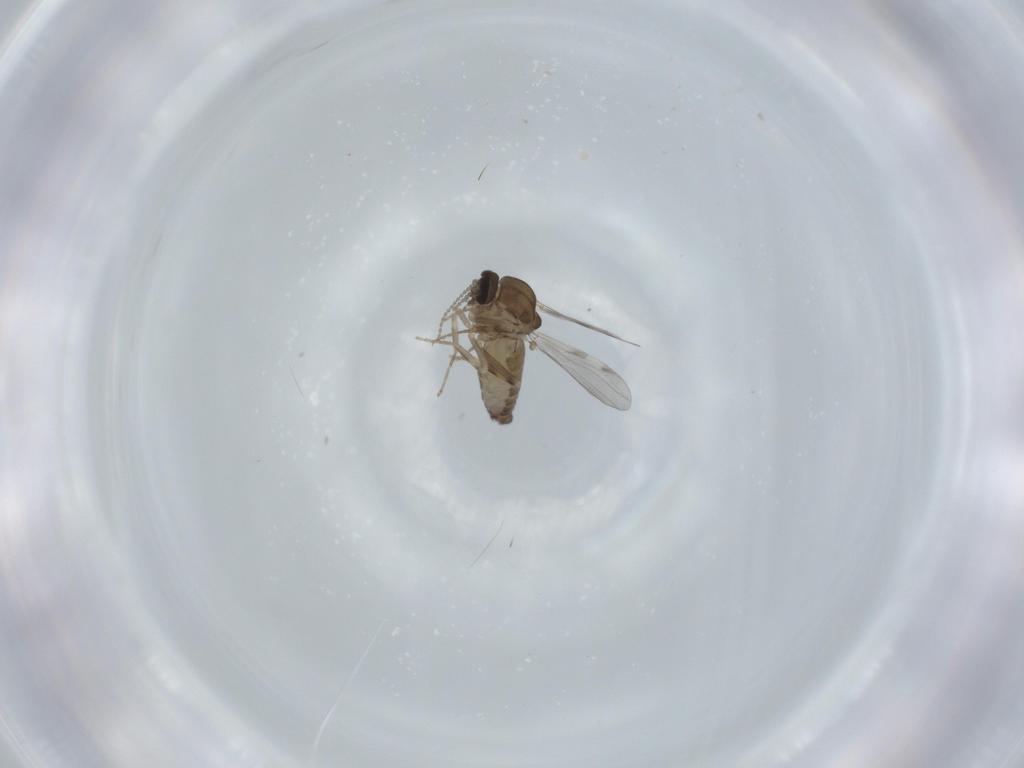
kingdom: Animalia
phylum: Arthropoda
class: Insecta
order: Diptera
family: Ceratopogonidae
